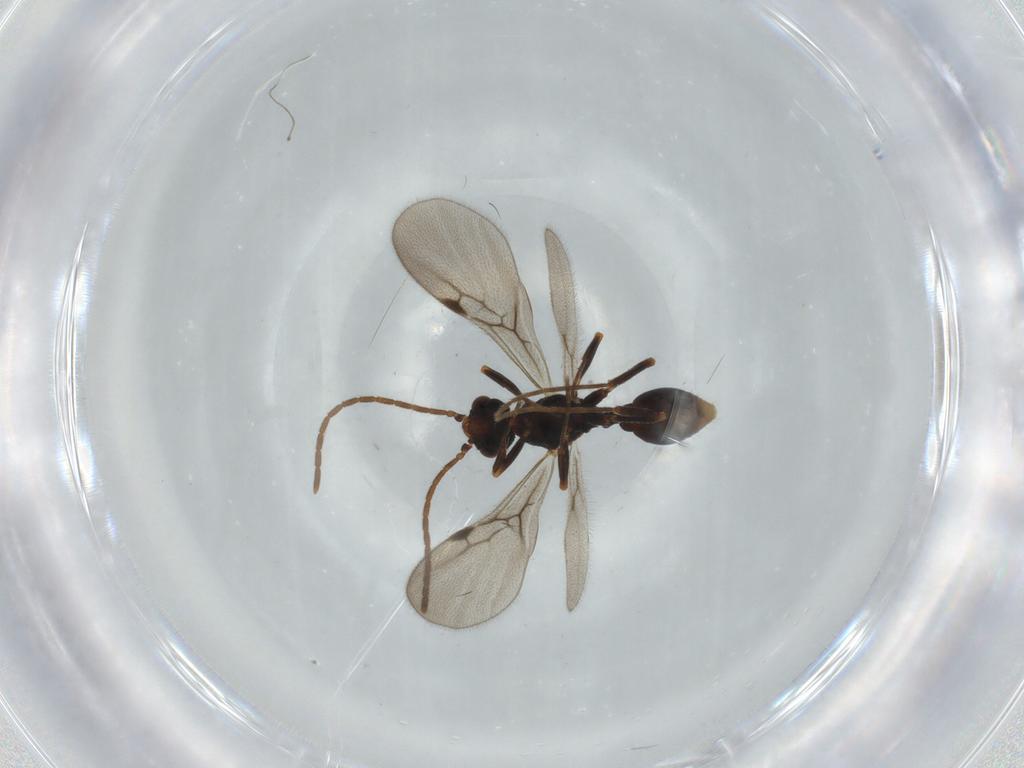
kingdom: Animalia
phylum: Arthropoda
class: Insecta
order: Hymenoptera
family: Formicidae
